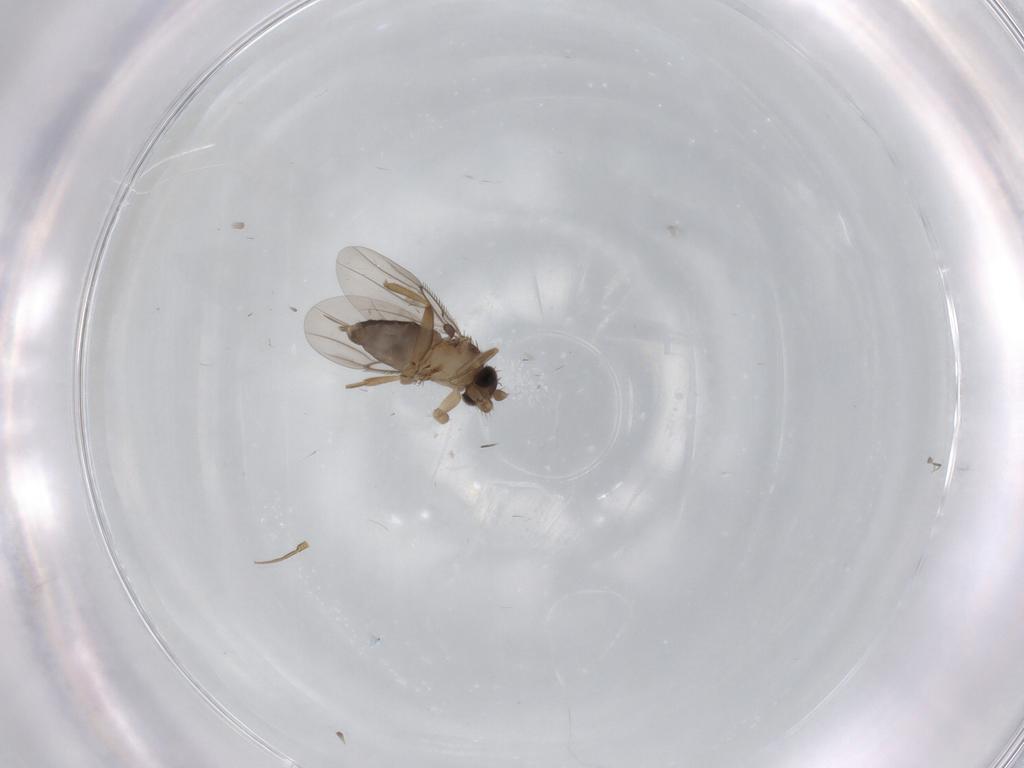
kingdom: Animalia
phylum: Arthropoda
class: Insecta
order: Diptera
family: Phoridae
